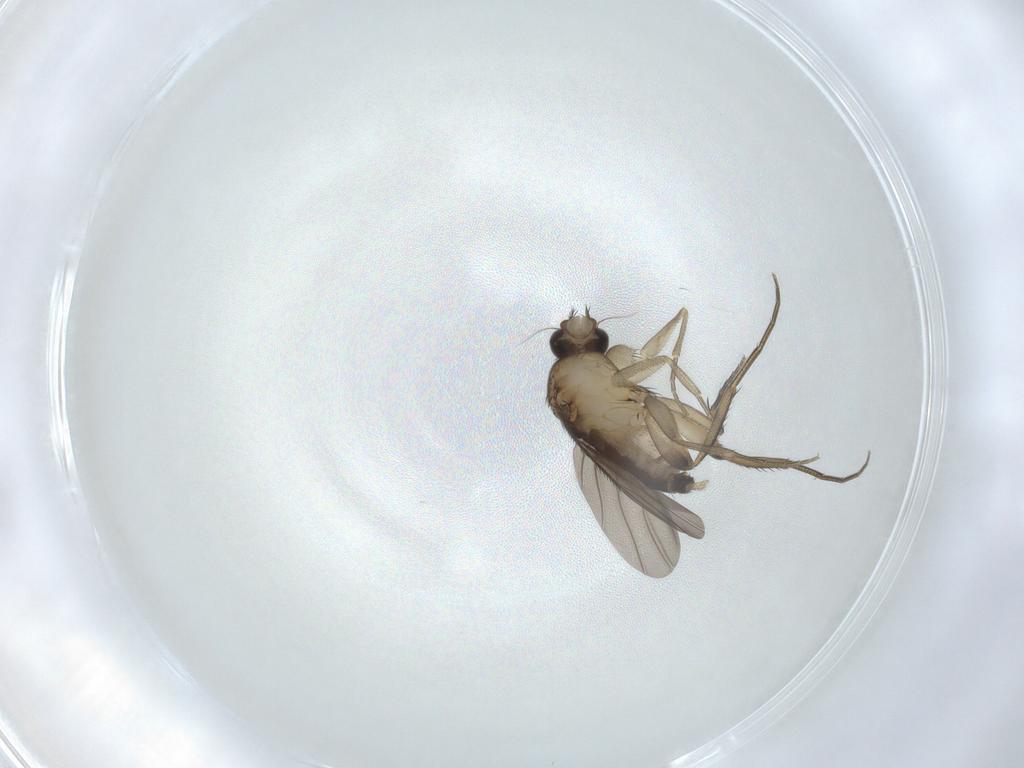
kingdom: Animalia
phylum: Arthropoda
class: Insecta
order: Diptera
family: Phoridae
